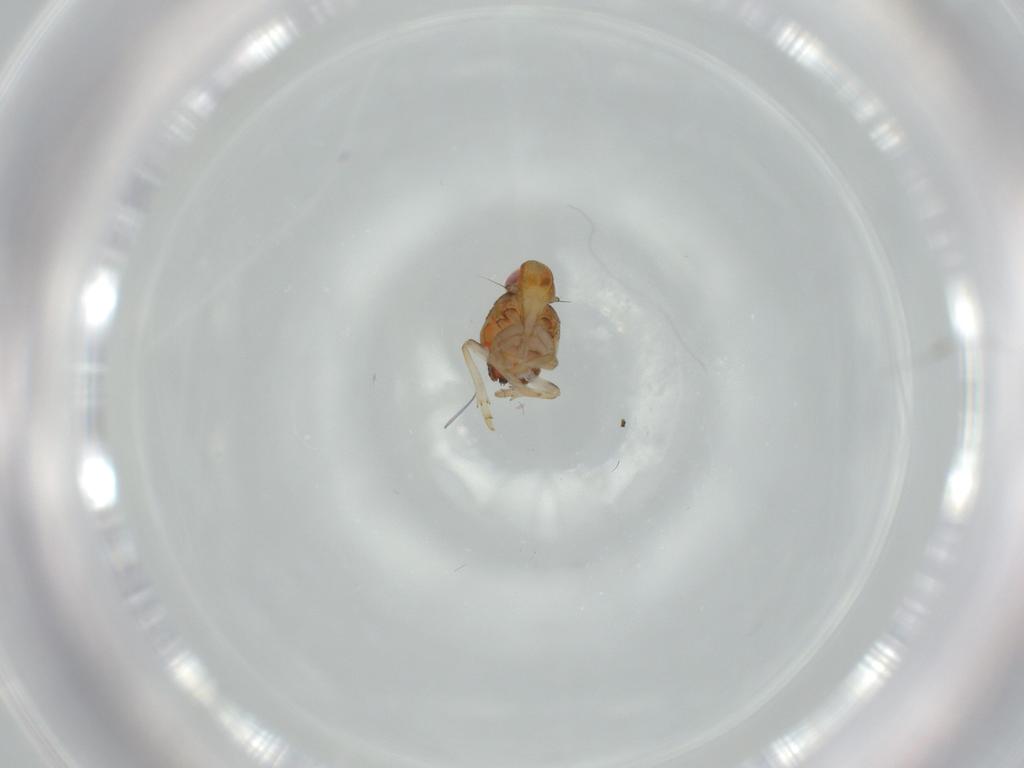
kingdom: Animalia
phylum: Arthropoda
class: Insecta
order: Hemiptera
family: Issidae
